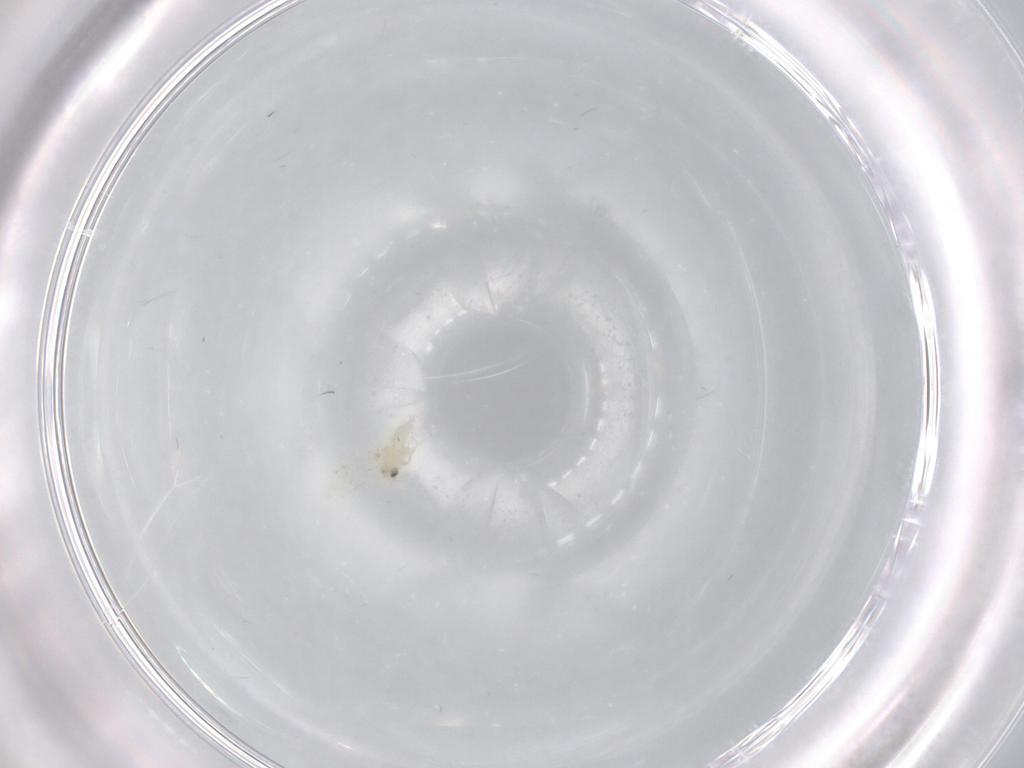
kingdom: Animalia
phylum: Arthropoda
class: Insecta
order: Hemiptera
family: Aleyrodidae
